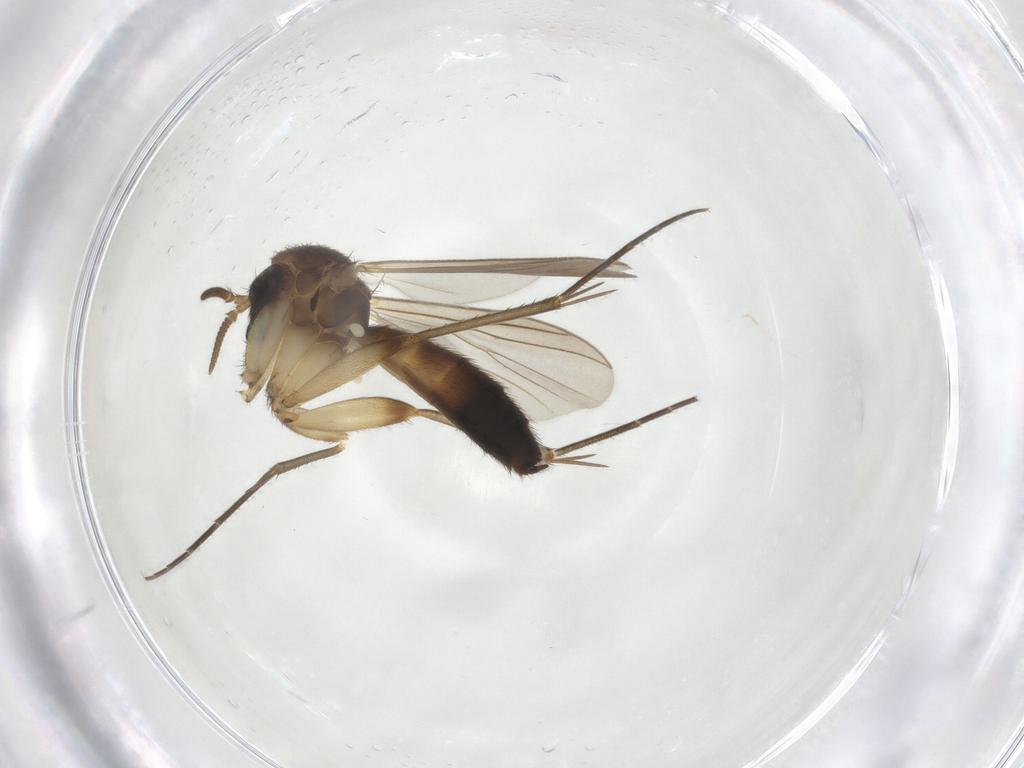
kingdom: Animalia
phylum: Arthropoda
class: Insecta
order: Diptera
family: Mycetophilidae
